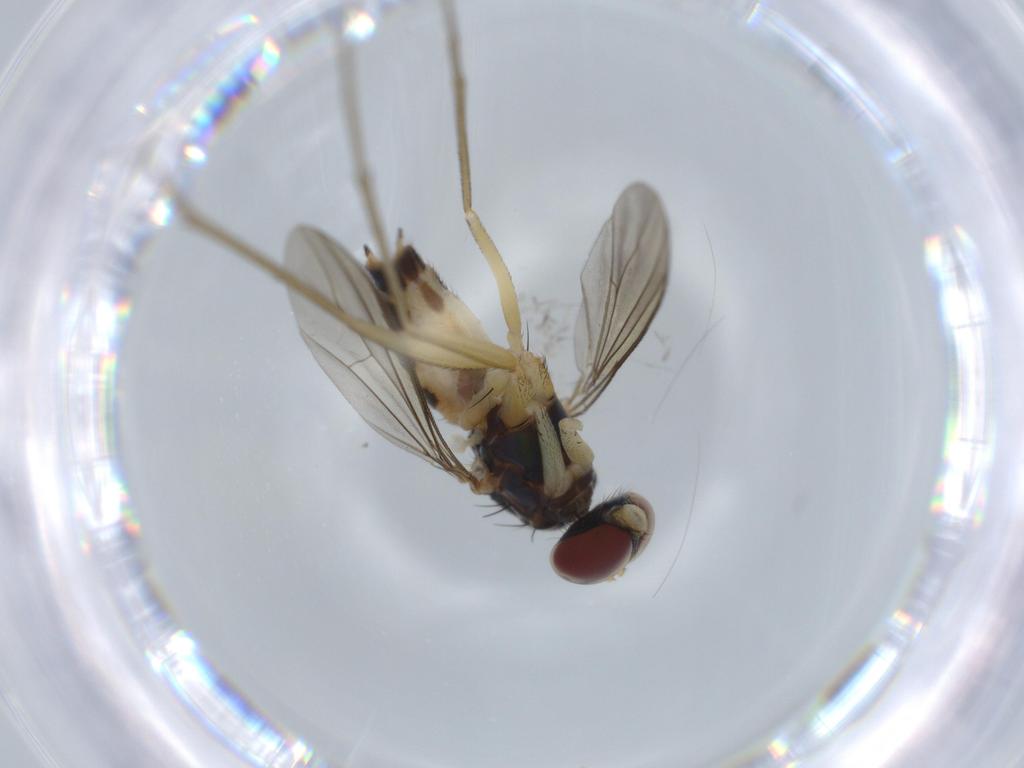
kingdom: Animalia
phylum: Arthropoda
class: Insecta
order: Diptera
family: Dolichopodidae
